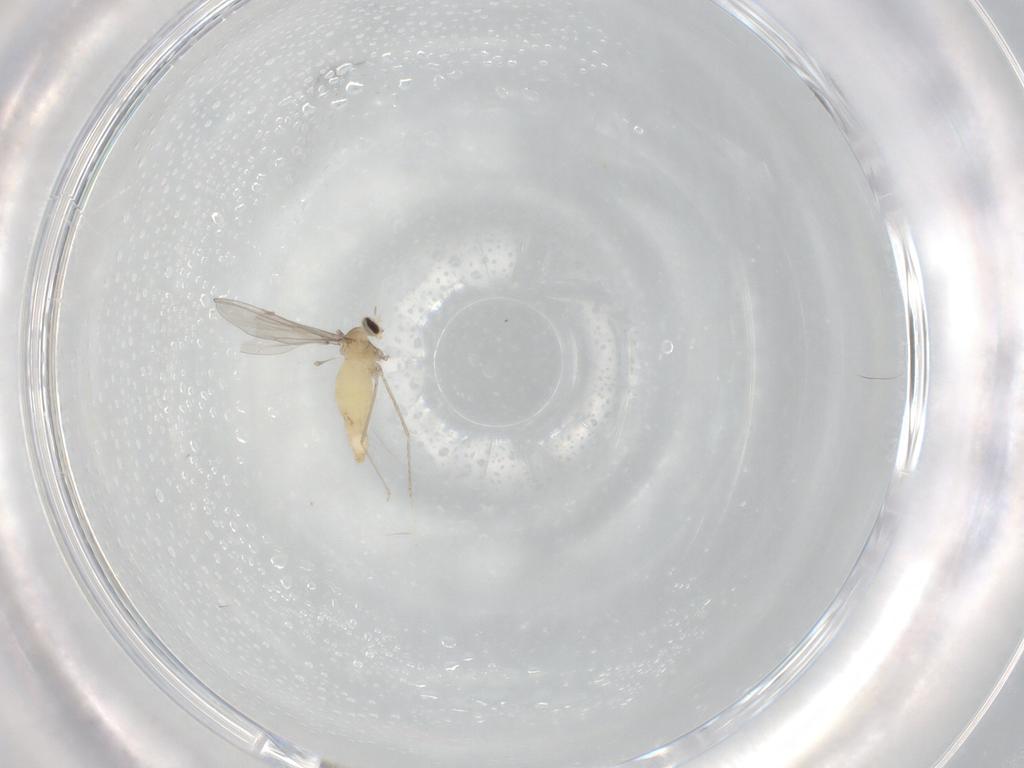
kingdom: Animalia
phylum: Arthropoda
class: Insecta
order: Diptera
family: Cecidomyiidae
